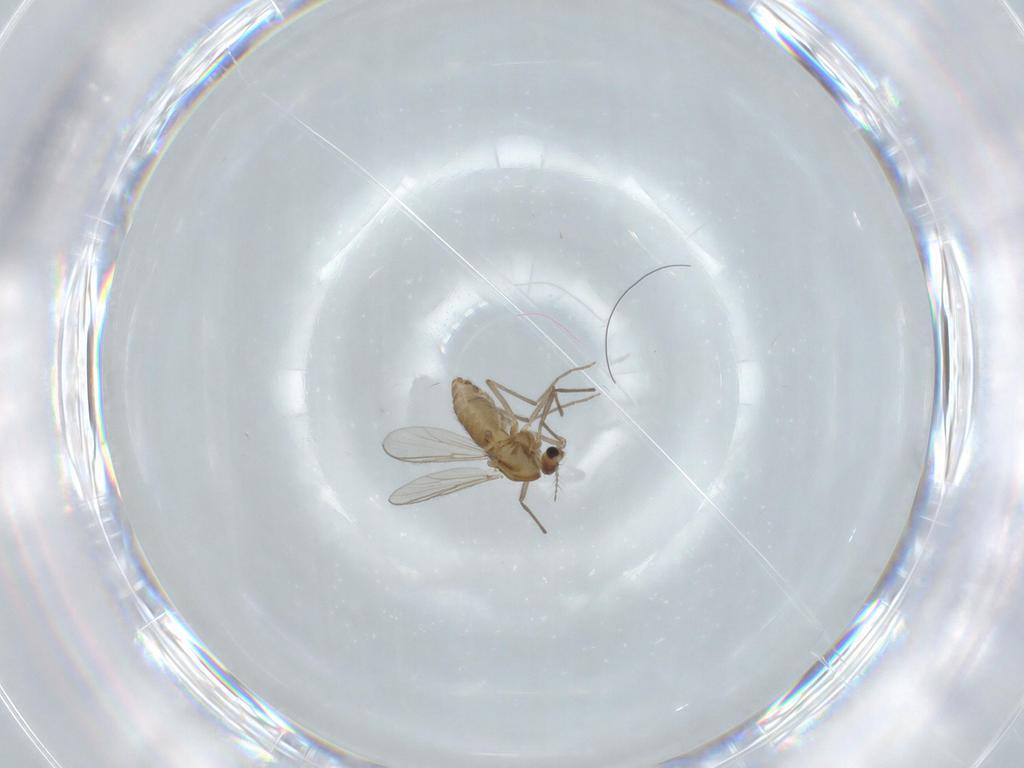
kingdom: Animalia
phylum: Arthropoda
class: Insecta
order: Diptera
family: Chironomidae
